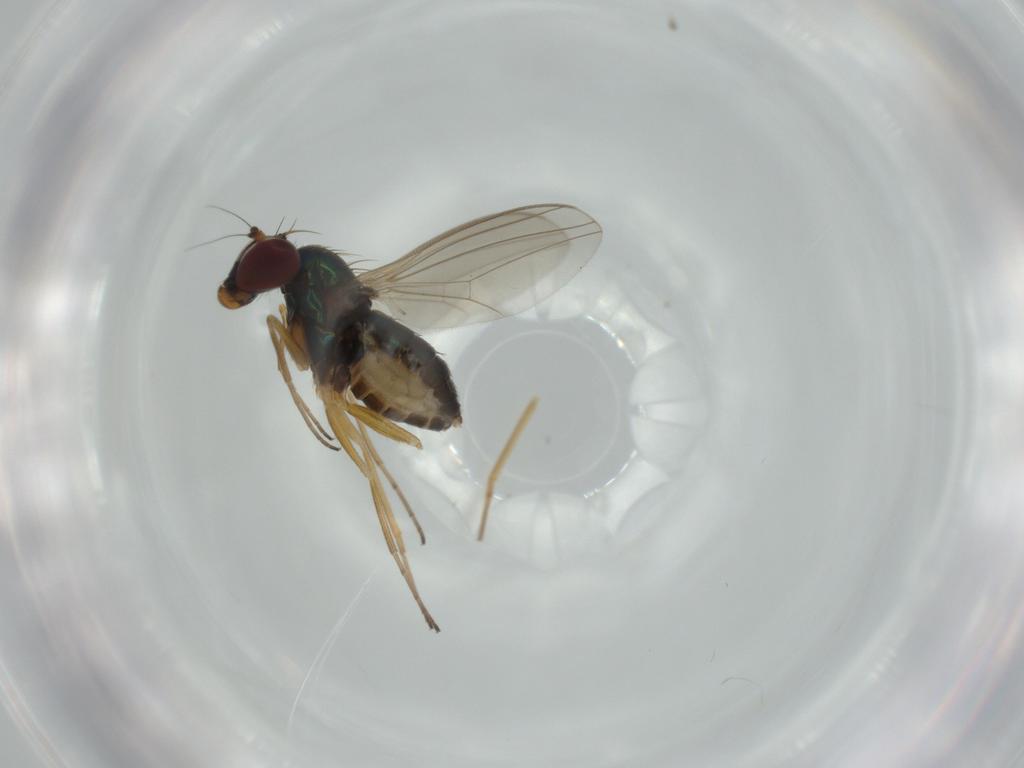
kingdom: Animalia
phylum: Arthropoda
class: Insecta
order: Diptera
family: Dolichopodidae
